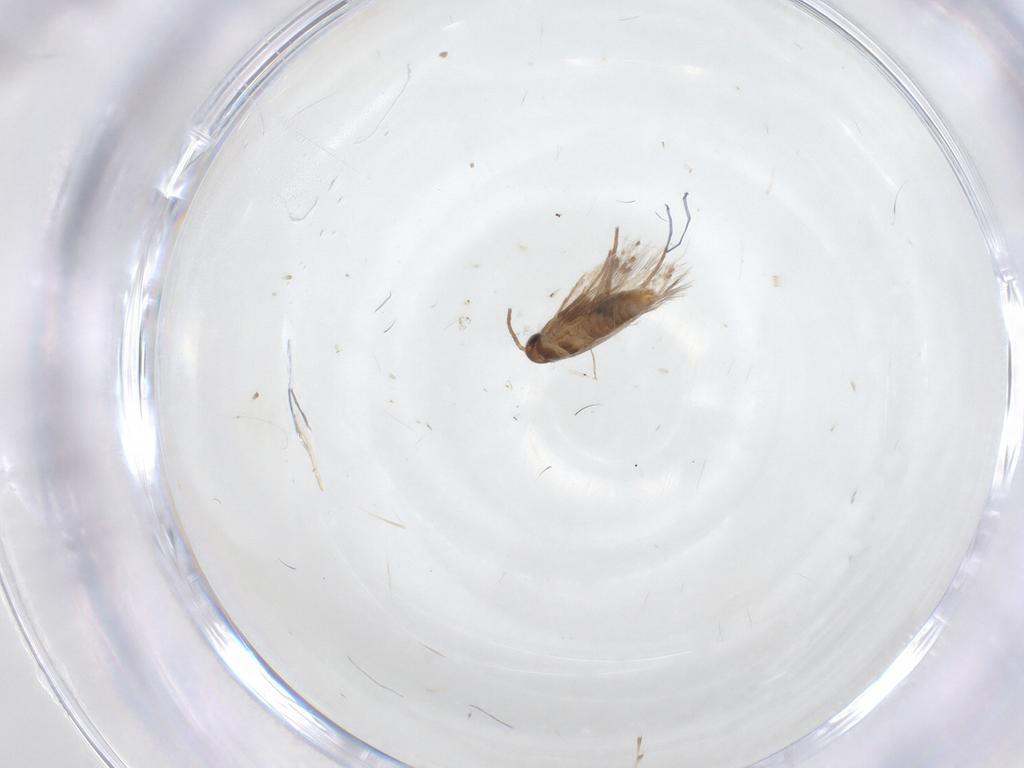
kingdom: Animalia
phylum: Arthropoda
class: Insecta
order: Lepidoptera
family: Heliozelidae
